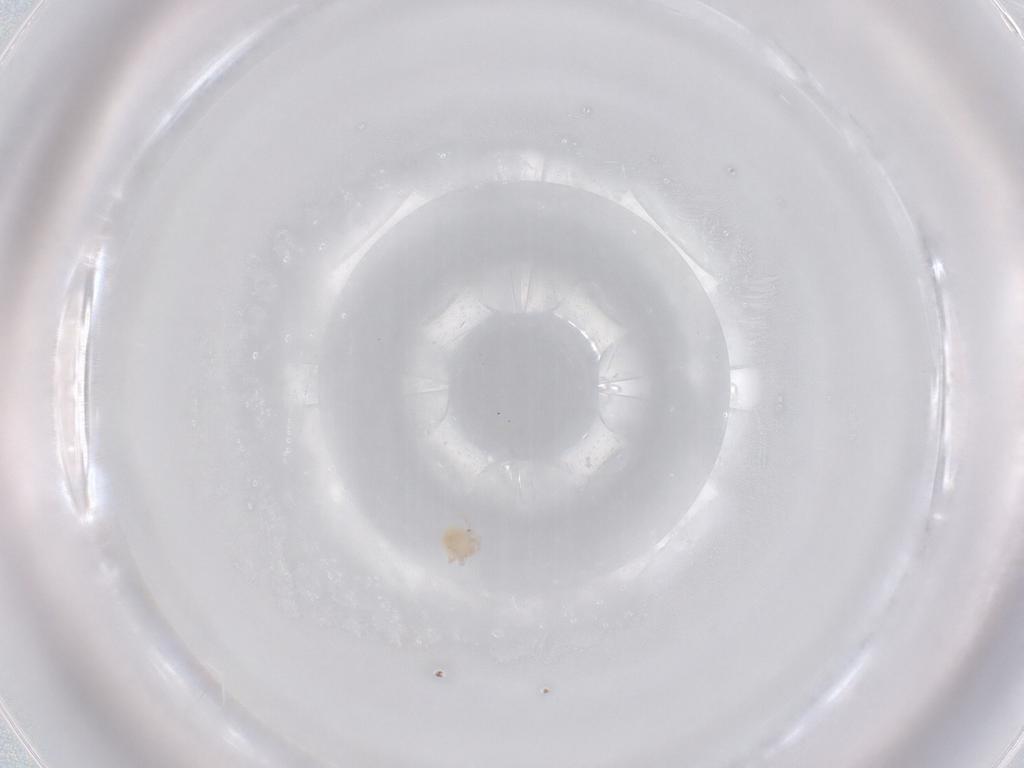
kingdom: Animalia
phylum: Arthropoda
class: Arachnida
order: Trombidiformes
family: Lebertiidae
